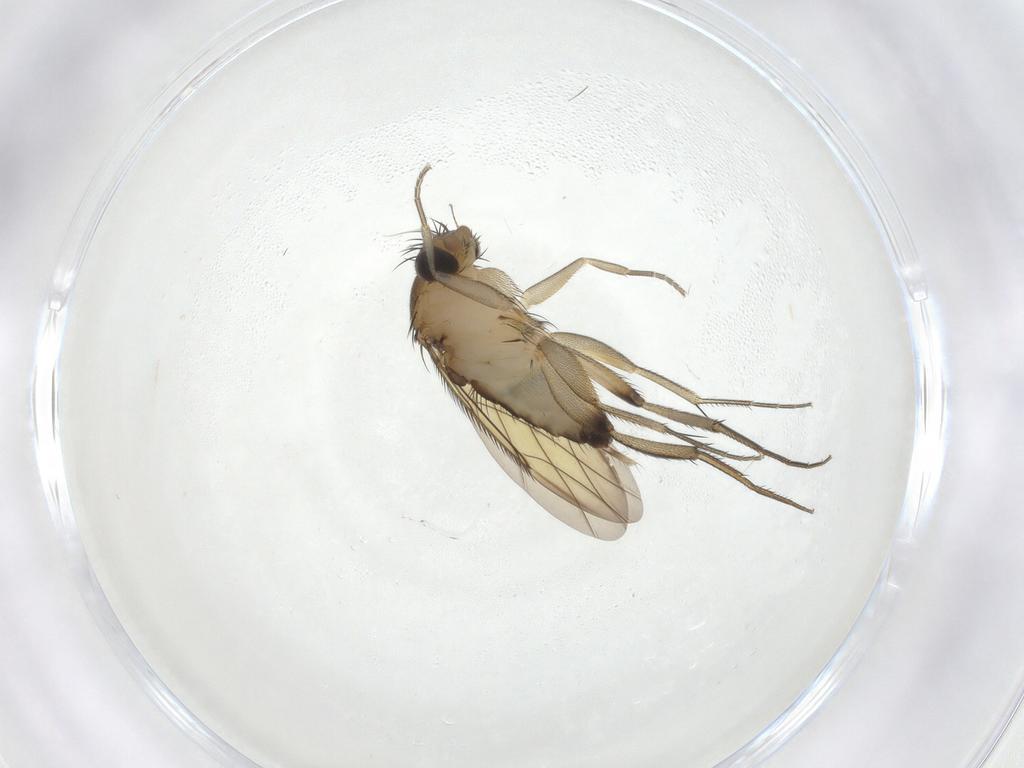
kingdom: Animalia
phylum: Arthropoda
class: Insecta
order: Diptera
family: Phoridae
